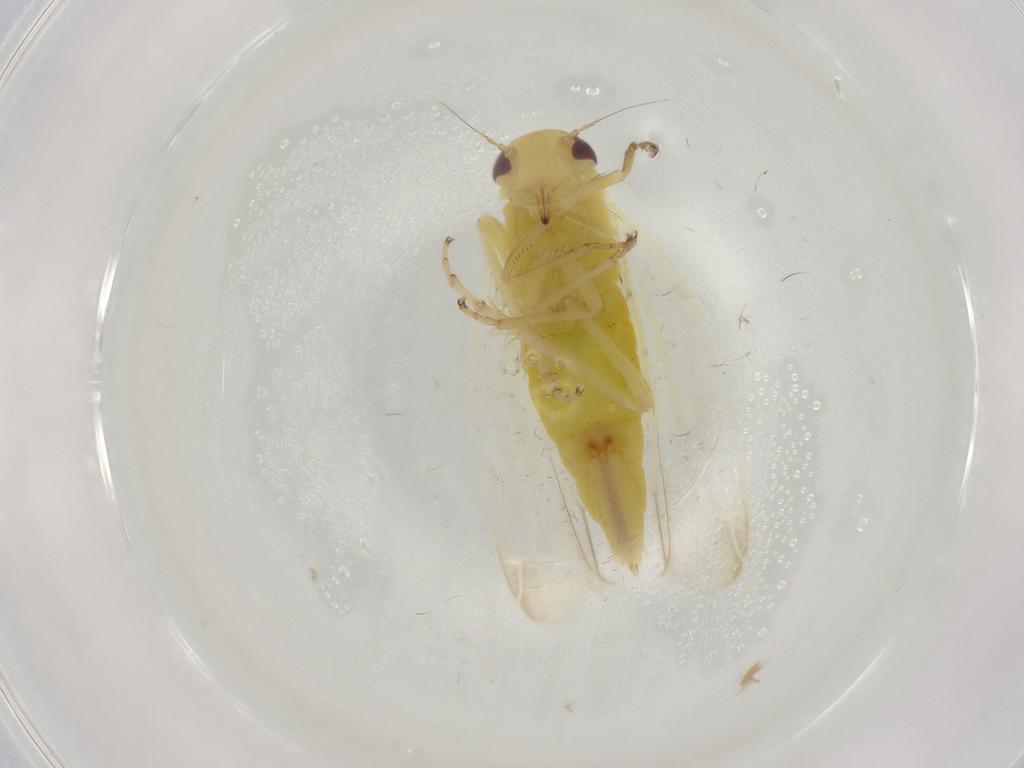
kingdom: Animalia
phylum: Arthropoda
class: Insecta
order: Hemiptera
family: Cicadellidae
